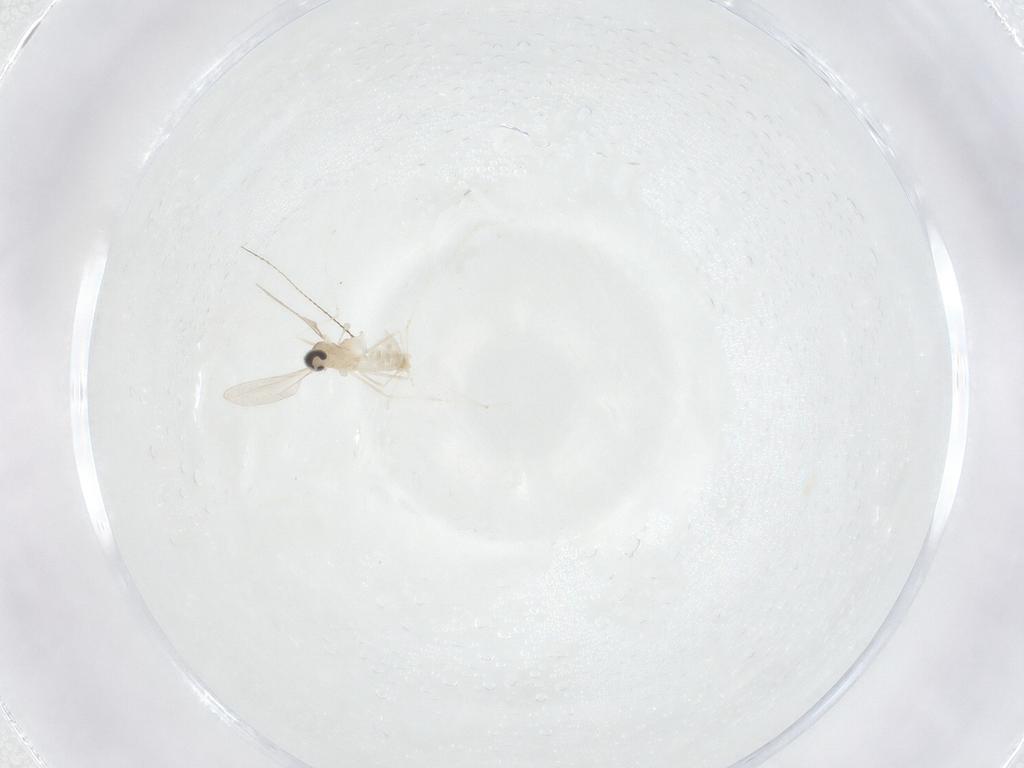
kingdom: Animalia
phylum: Arthropoda
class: Insecta
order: Diptera
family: Cecidomyiidae
